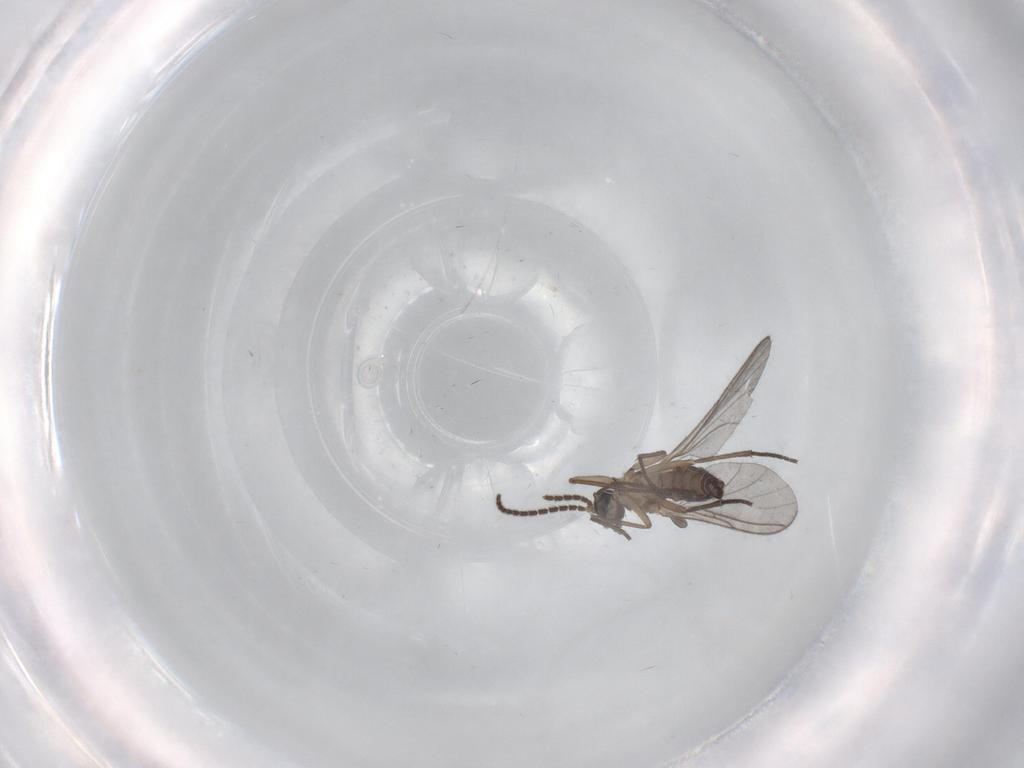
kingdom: Animalia
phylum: Arthropoda
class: Insecta
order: Diptera
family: Sciaridae
